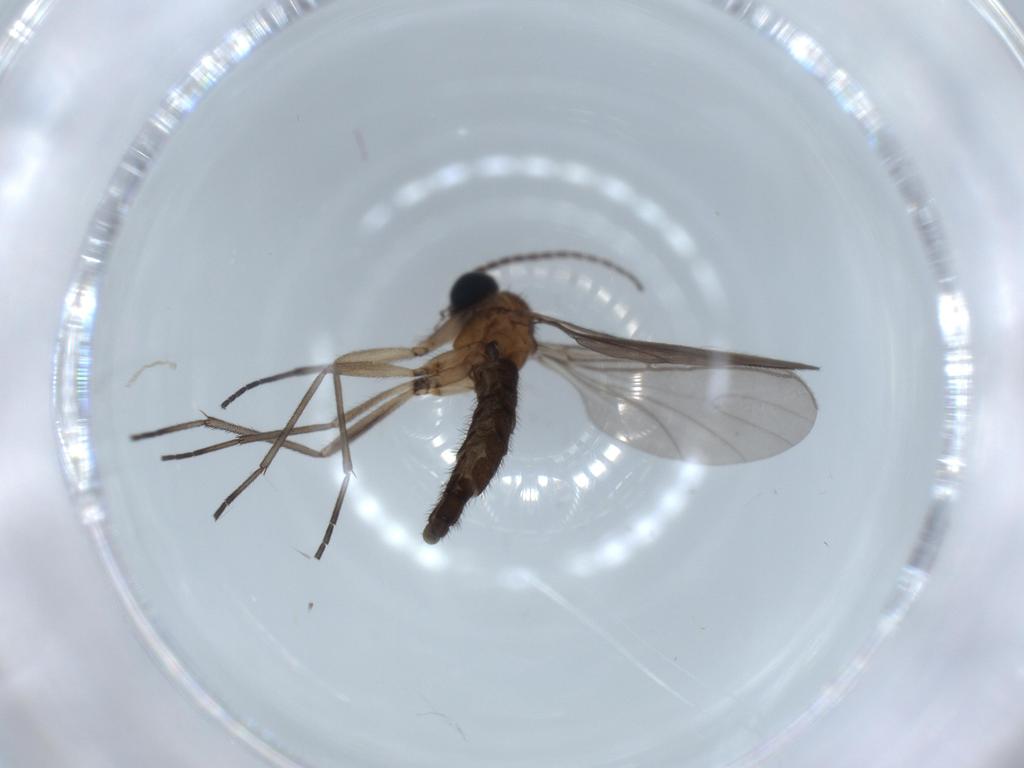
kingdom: Animalia
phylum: Arthropoda
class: Insecta
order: Diptera
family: Sciaridae
